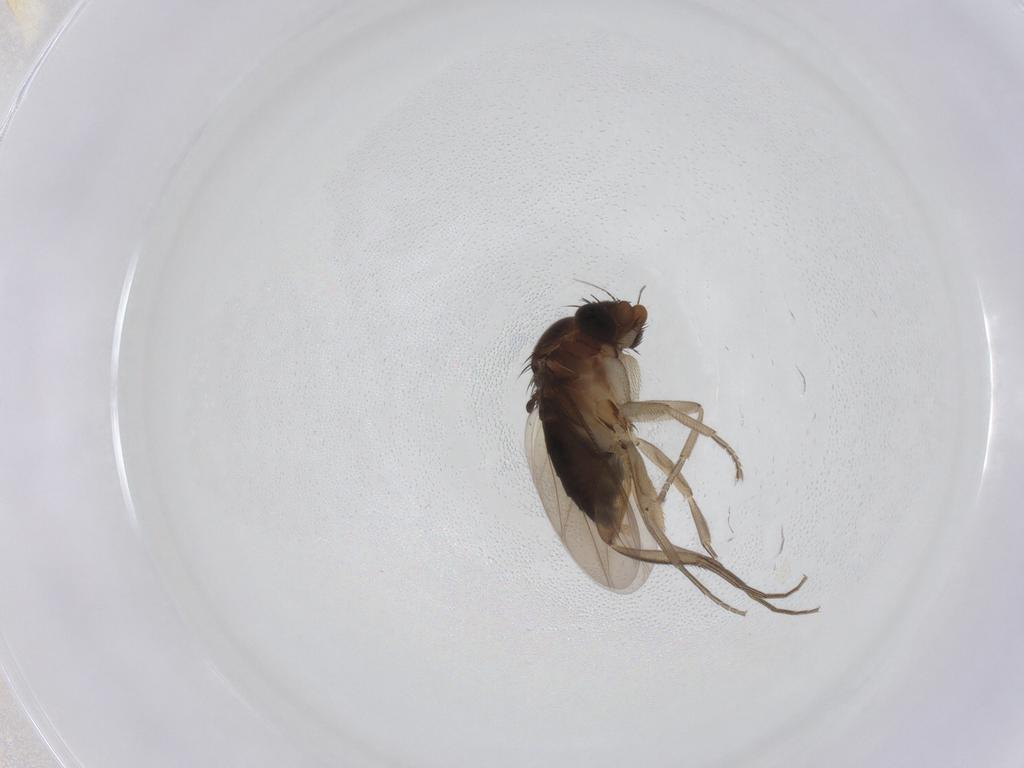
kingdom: Animalia
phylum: Arthropoda
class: Insecta
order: Diptera
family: Phoridae
